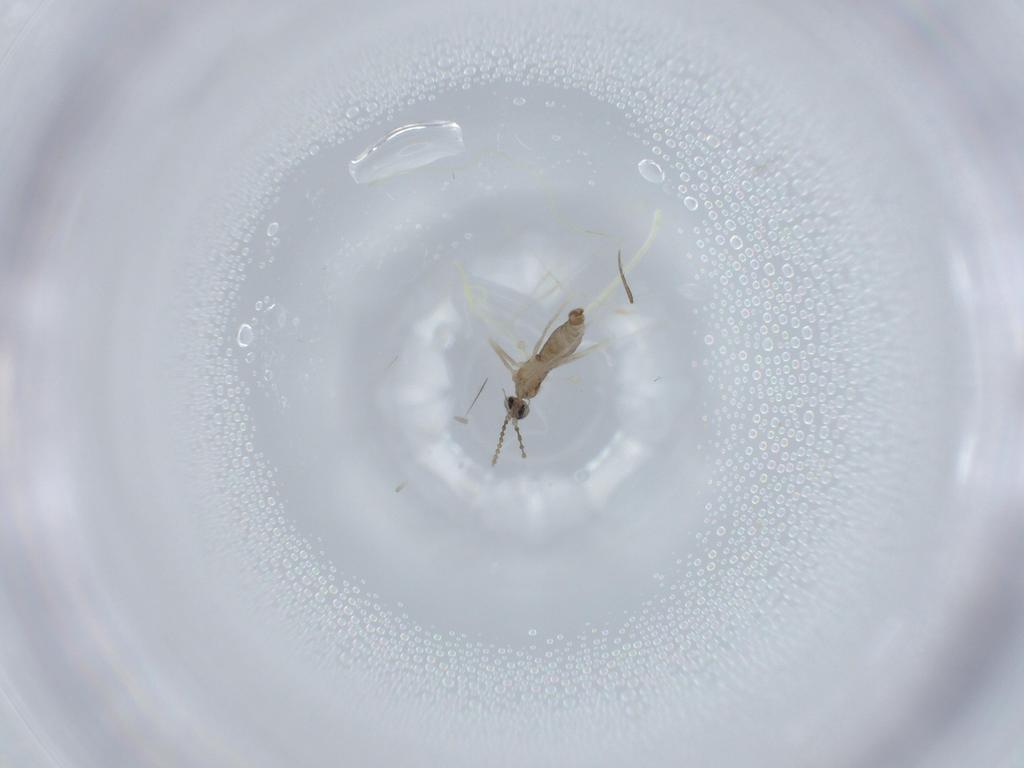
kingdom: Animalia
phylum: Arthropoda
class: Insecta
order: Diptera
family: Cecidomyiidae
